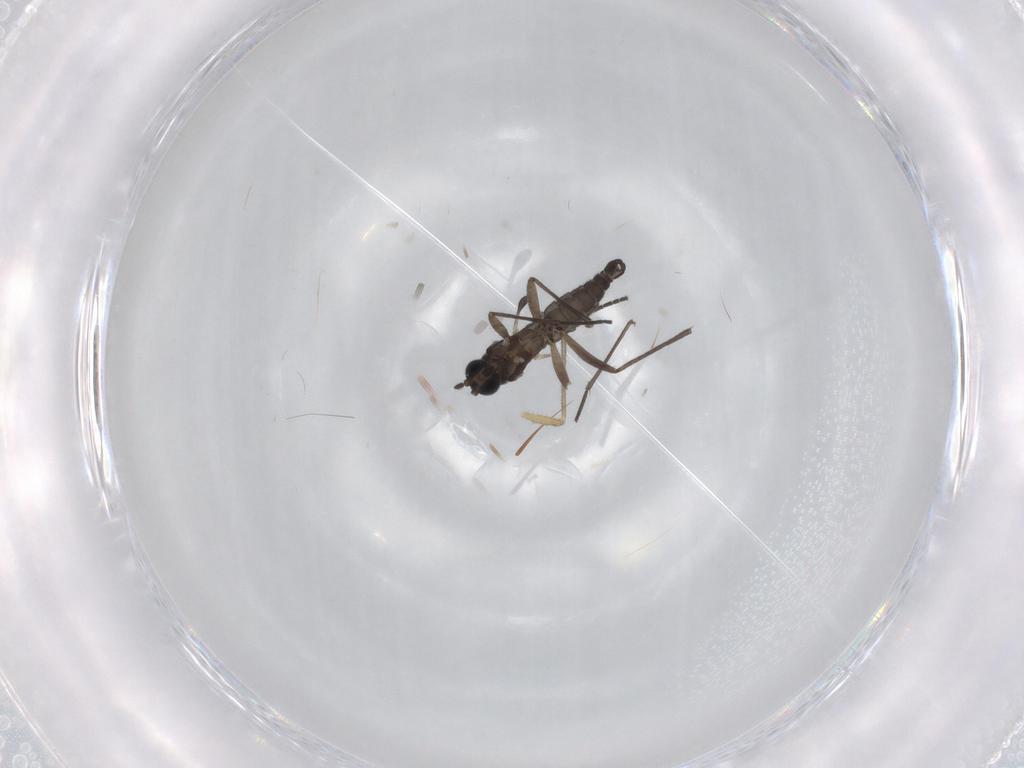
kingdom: Animalia
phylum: Arthropoda
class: Insecta
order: Diptera
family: Sciaridae
